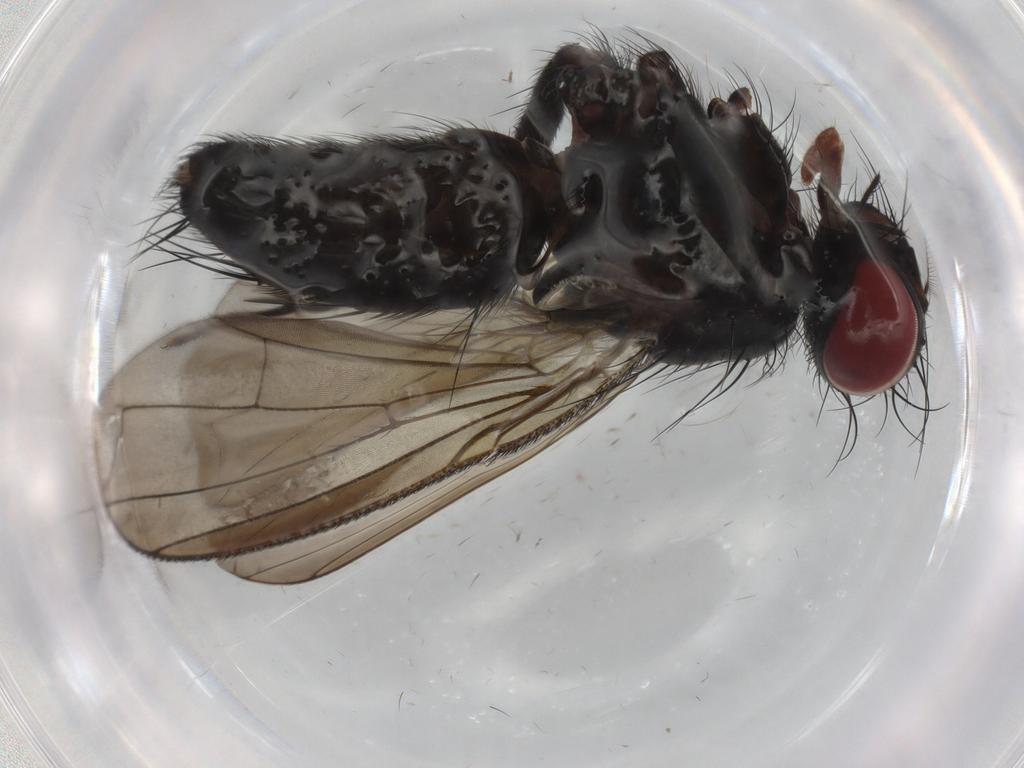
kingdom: Animalia
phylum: Arthropoda
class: Insecta
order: Diptera
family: Sarcophagidae
